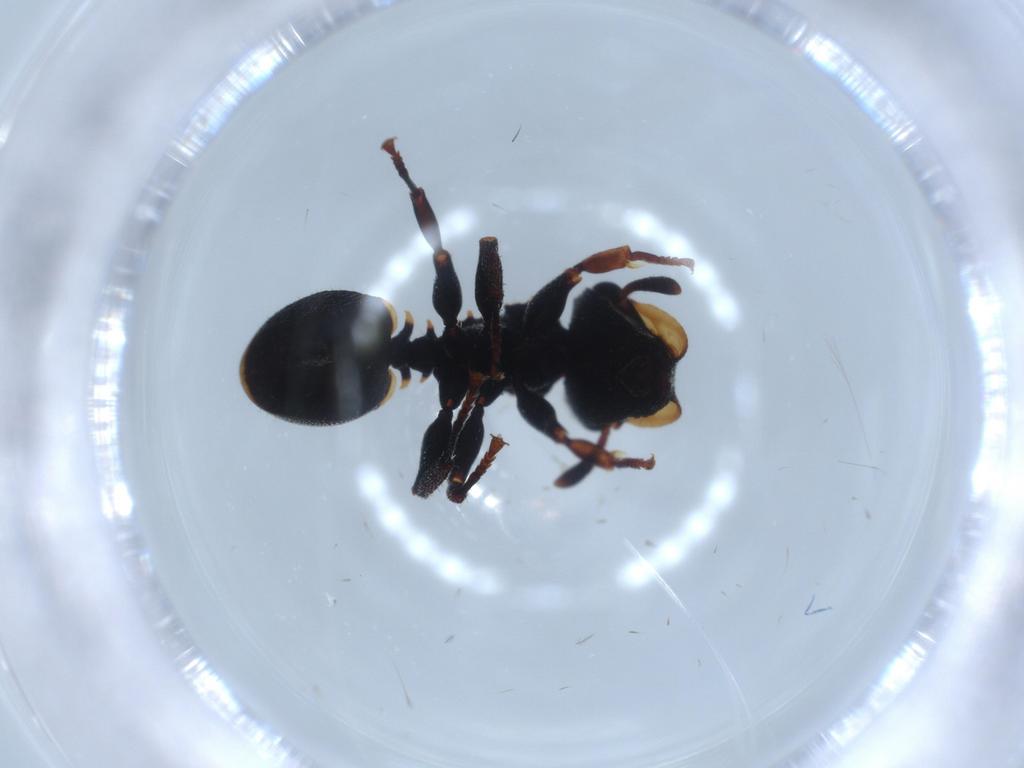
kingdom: Animalia
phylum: Arthropoda
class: Insecta
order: Hymenoptera
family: Formicidae
